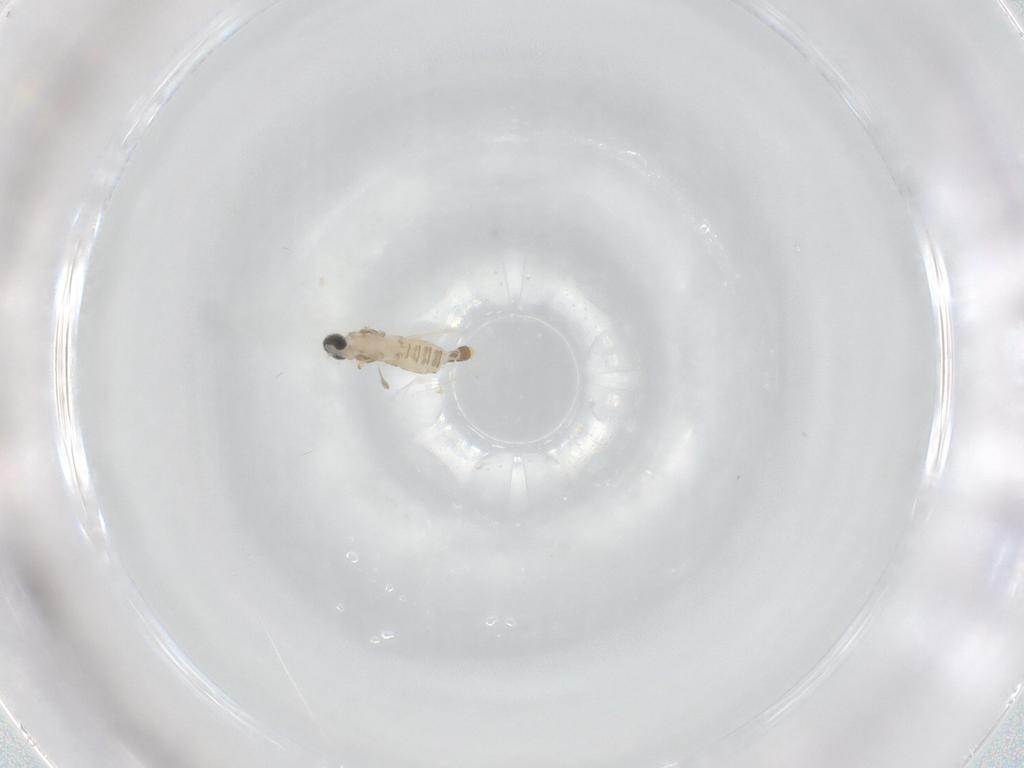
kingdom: Animalia
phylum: Arthropoda
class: Insecta
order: Diptera
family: Cecidomyiidae
